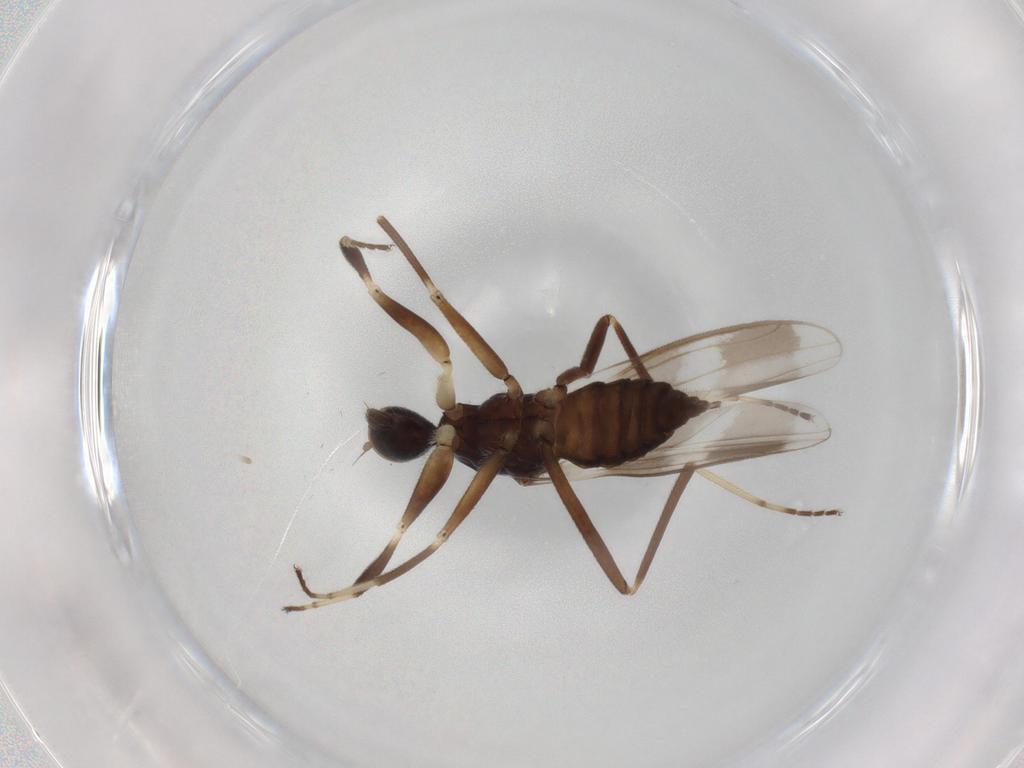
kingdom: Animalia
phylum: Arthropoda
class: Insecta
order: Diptera
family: Hybotidae
